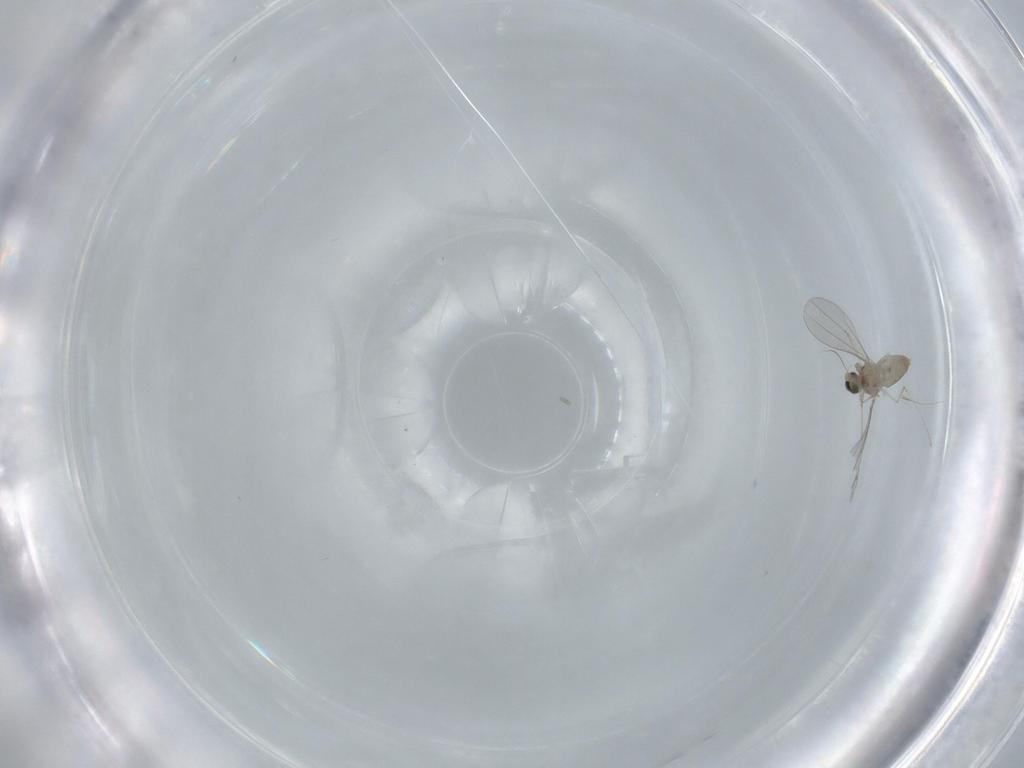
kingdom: Animalia
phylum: Arthropoda
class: Insecta
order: Diptera
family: Cecidomyiidae
